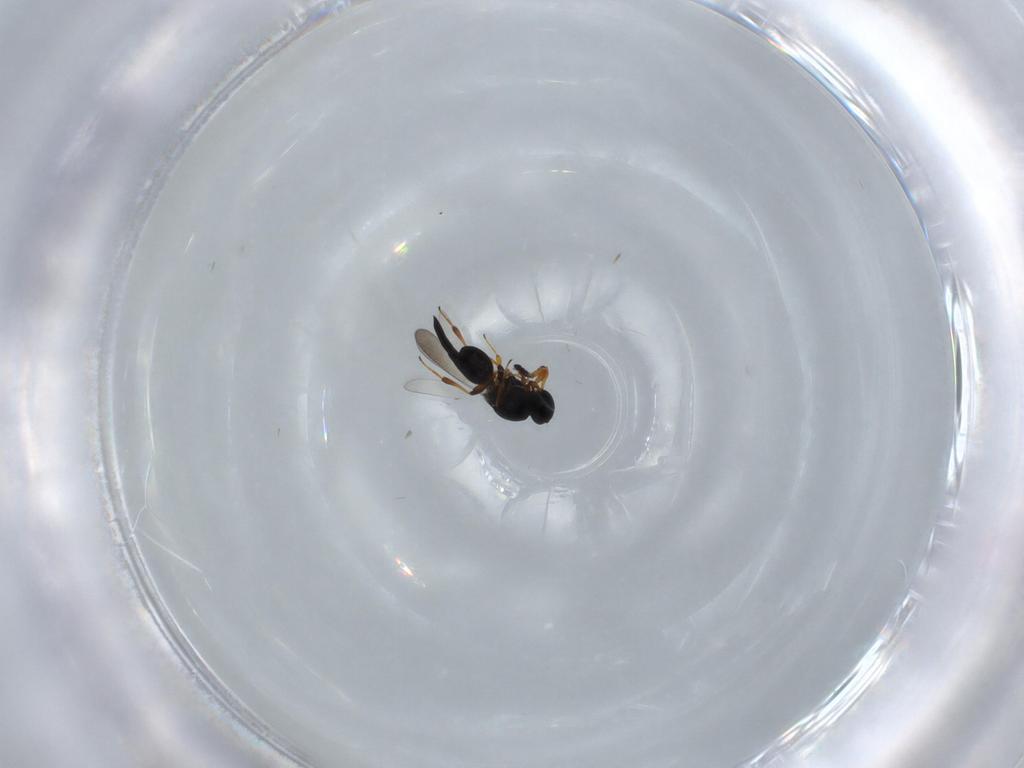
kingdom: Animalia
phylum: Arthropoda
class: Insecta
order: Hymenoptera
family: Platygastridae
